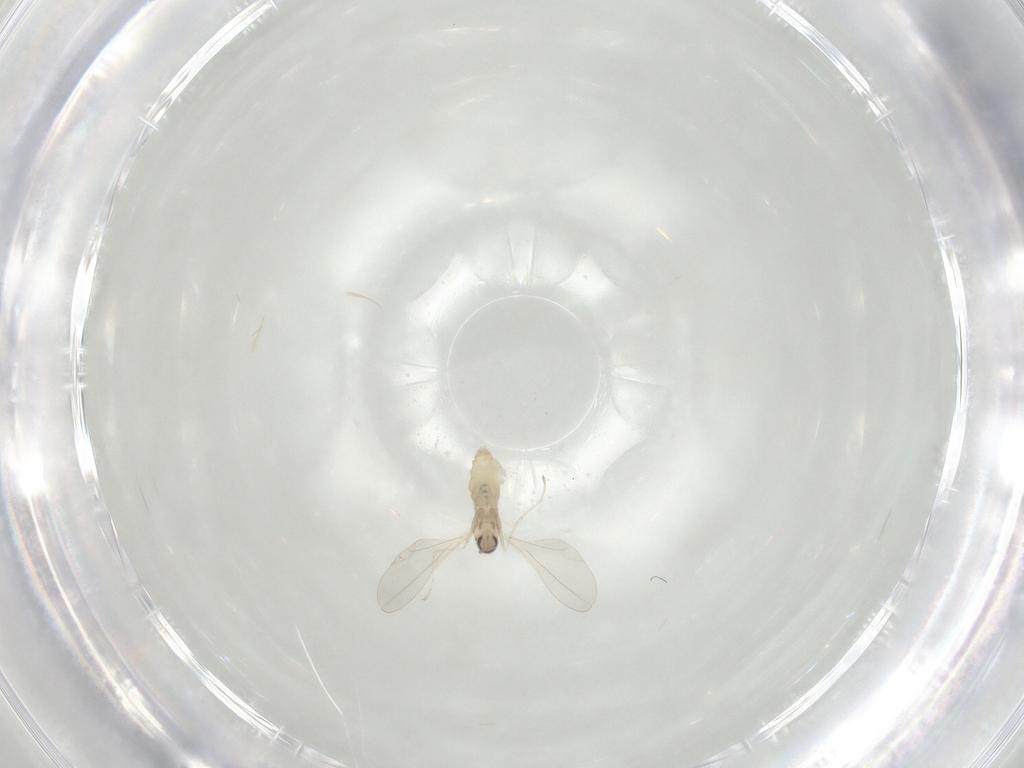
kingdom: Animalia
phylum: Arthropoda
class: Insecta
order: Diptera
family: Cecidomyiidae
